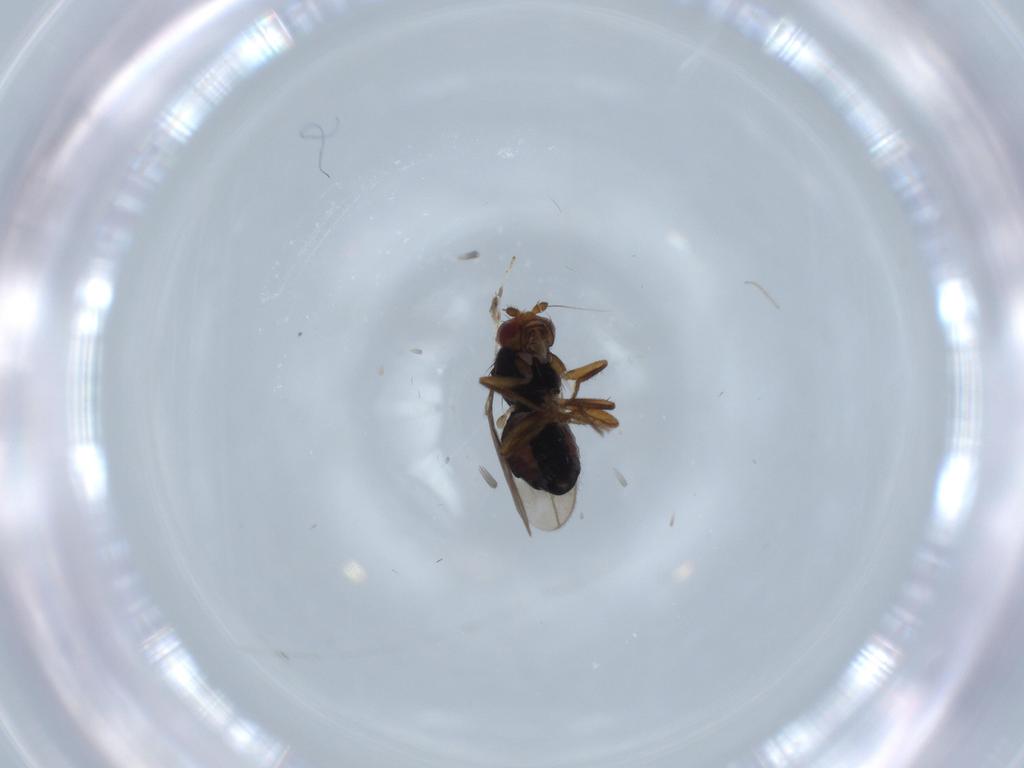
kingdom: Animalia
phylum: Arthropoda
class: Insecta
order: Diptera
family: Sphaeroceridae
